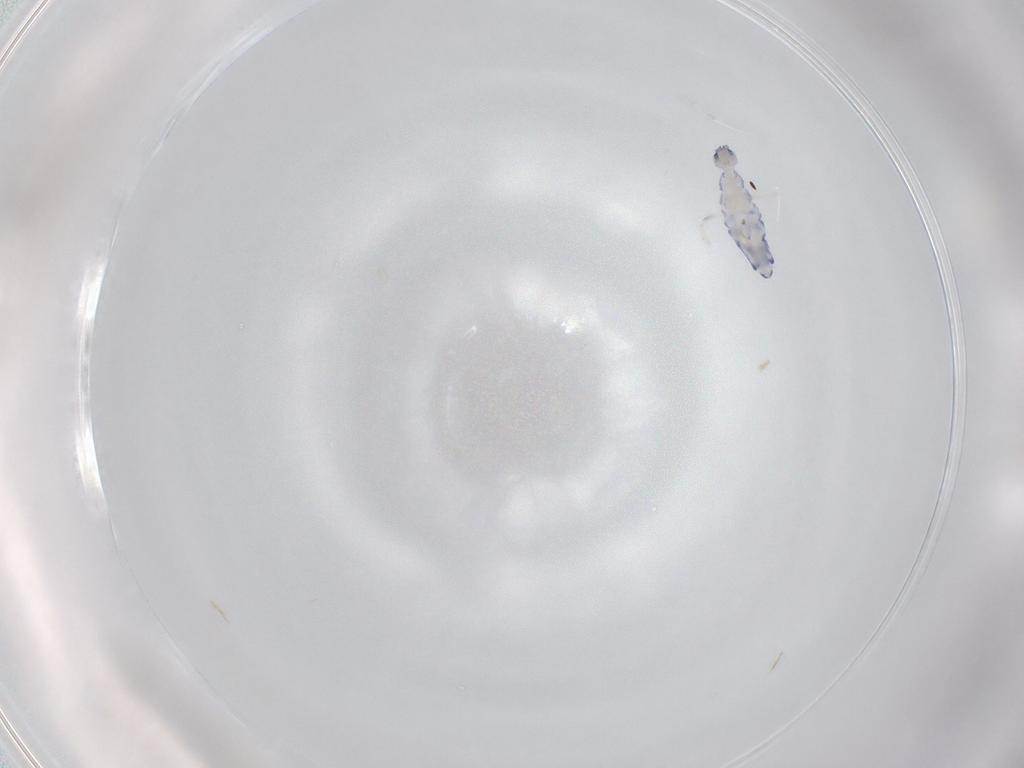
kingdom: Animalia
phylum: Arthropoda
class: Collembola
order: Entomobryomorpha
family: Entomobryidae
